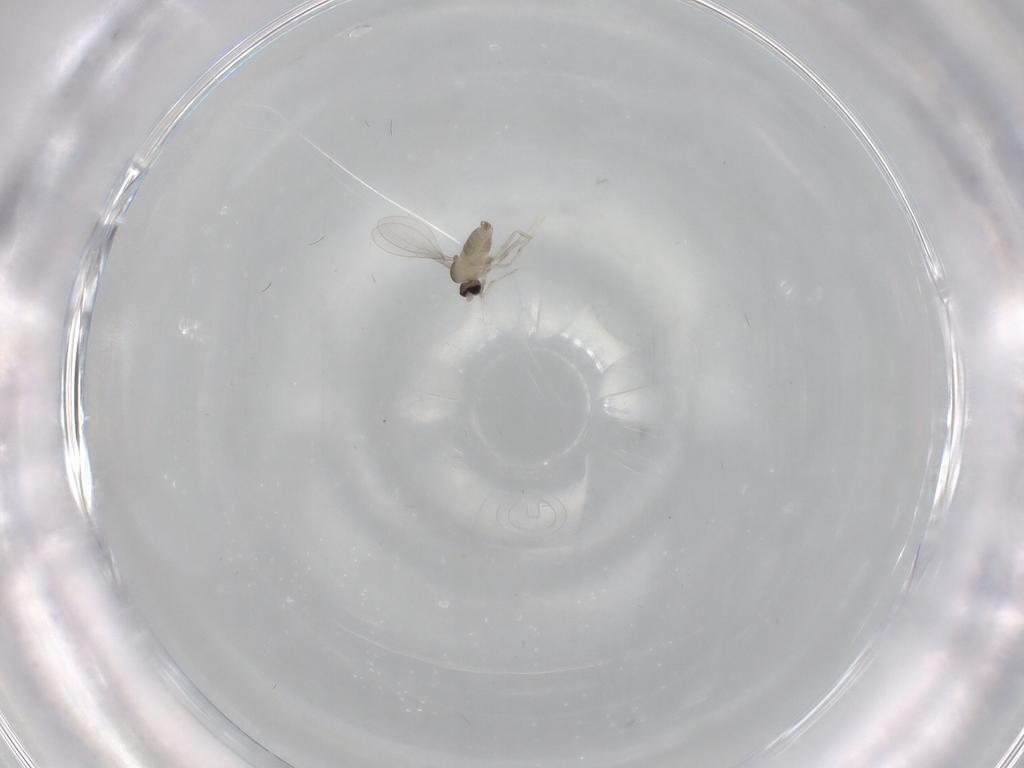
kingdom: Animalia
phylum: Arthropoda
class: Insecta
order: Diptera
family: Cecidomyiidae
